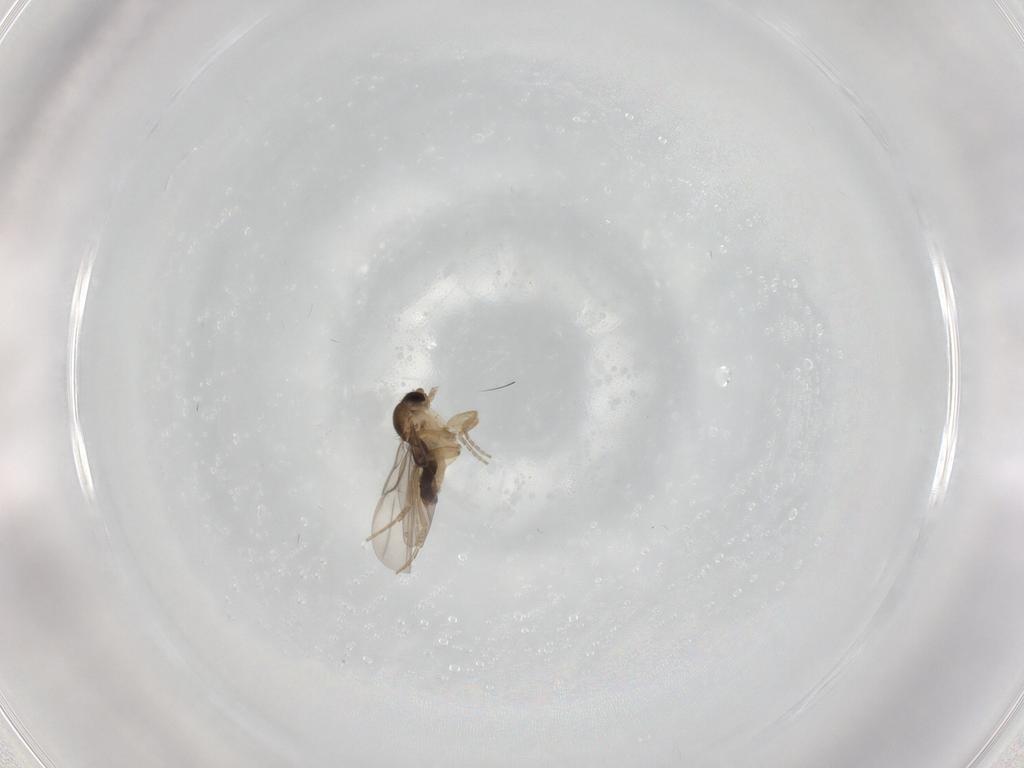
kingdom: Animalia
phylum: Arthropoda
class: Insecta
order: Diptera
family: Phoridae
